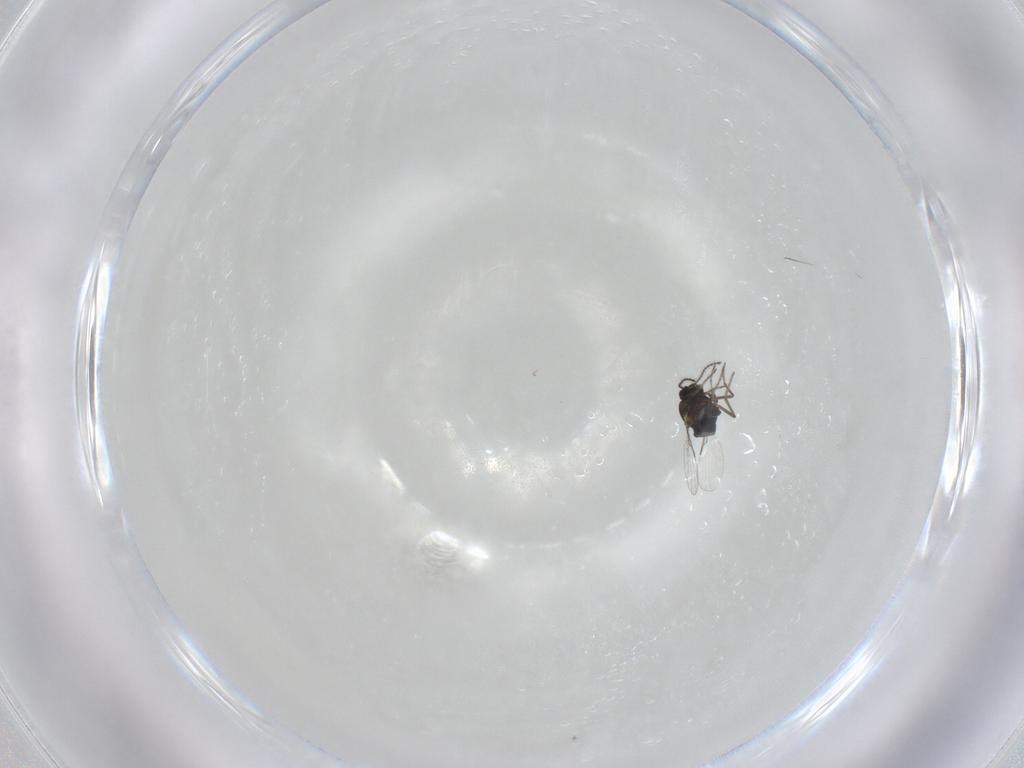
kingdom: Animalia
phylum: Arthropoda
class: Insecta
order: Diptera
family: Ceratopogonidae
